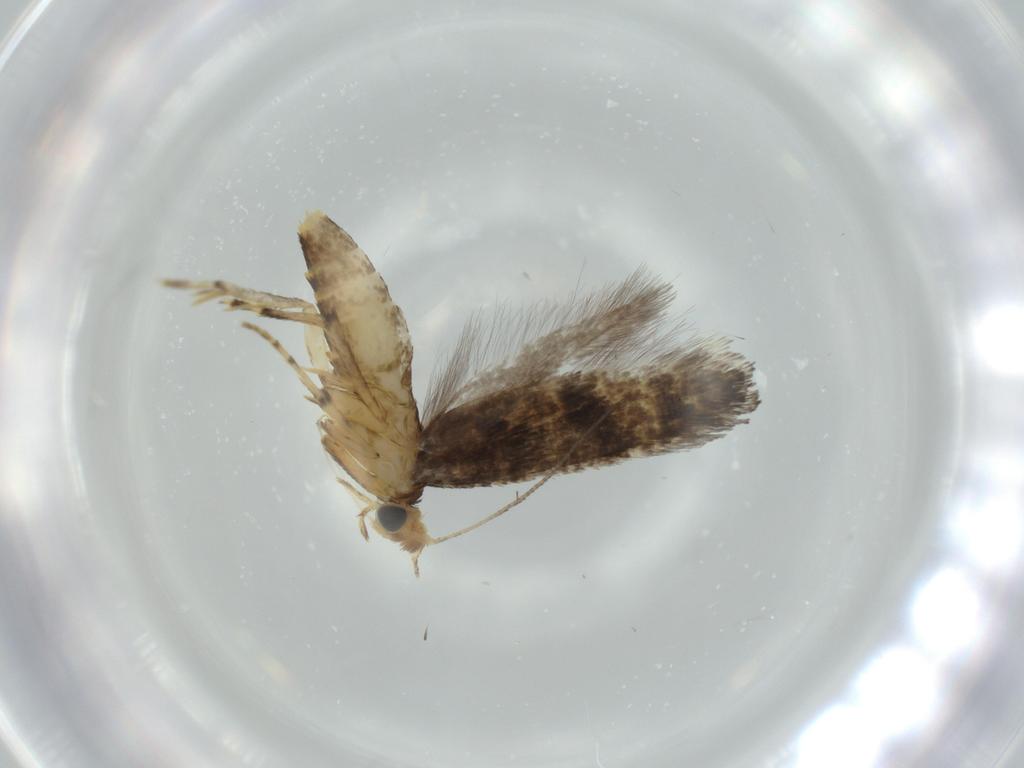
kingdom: Animalia
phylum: Arthropoda
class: Insecta
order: Lepidoptera
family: Argyresthiidae
